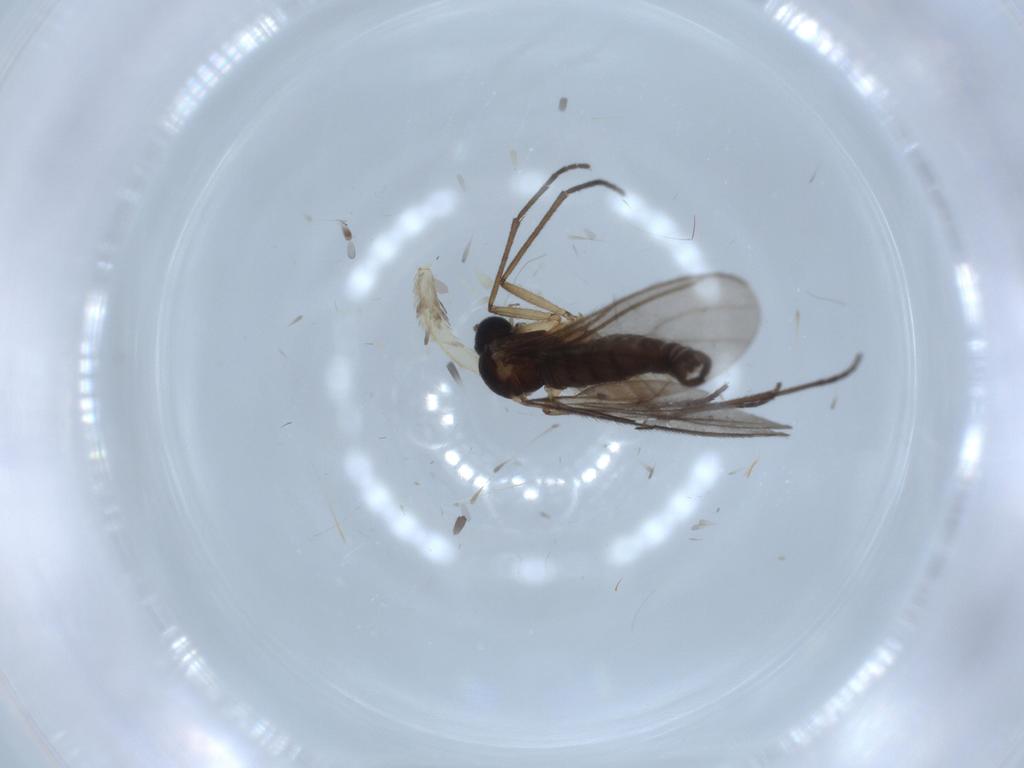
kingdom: Animalia
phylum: Arthropoda
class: Insecta
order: Diptera
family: Sciaridae
